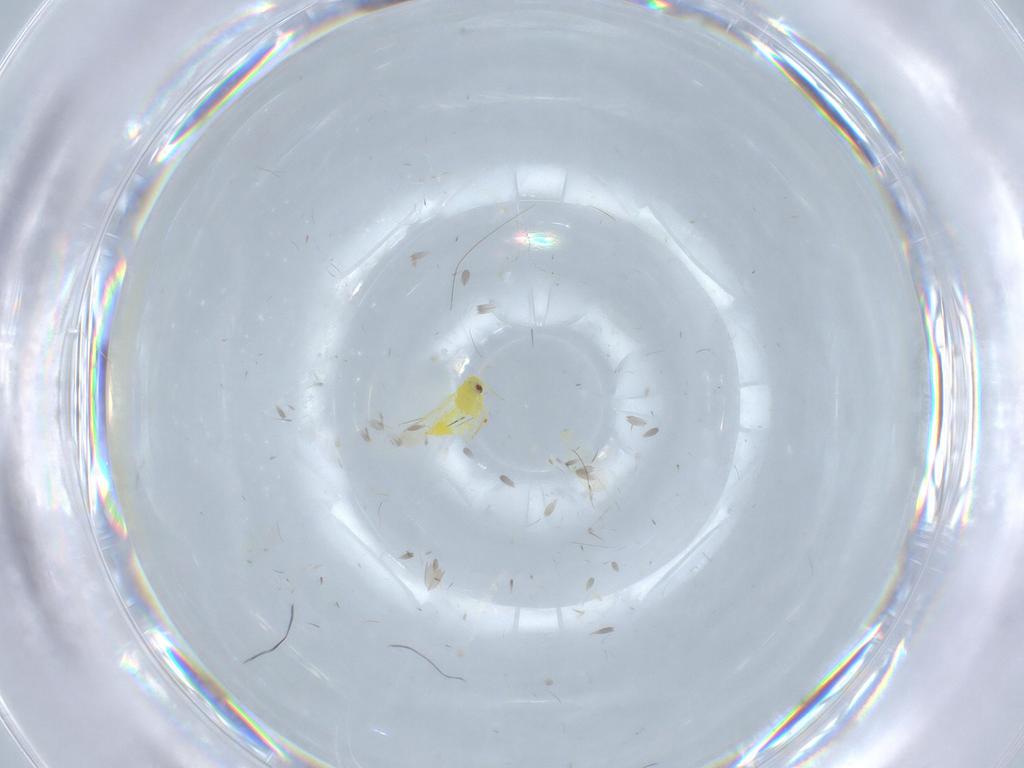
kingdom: Animalia
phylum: Arthropoda
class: Insecta
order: Hemiptera
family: Aleyrodidae
